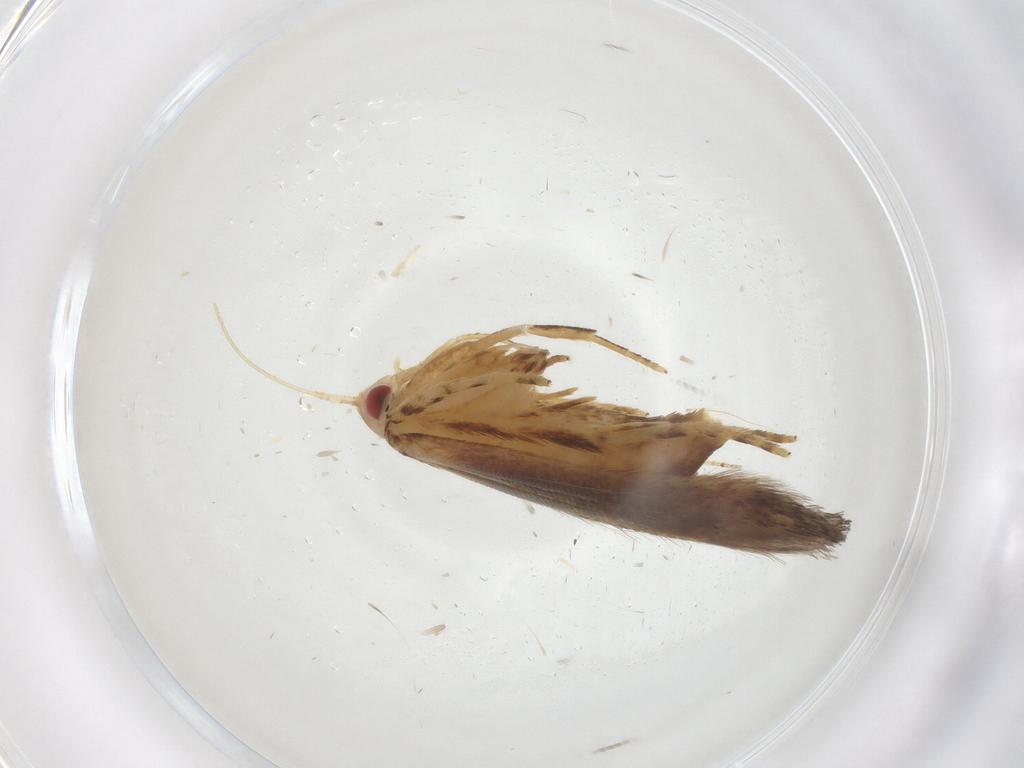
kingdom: Animalia
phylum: Arthropoda
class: Insecta
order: Lepidoptera
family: Cosmopterigidae
